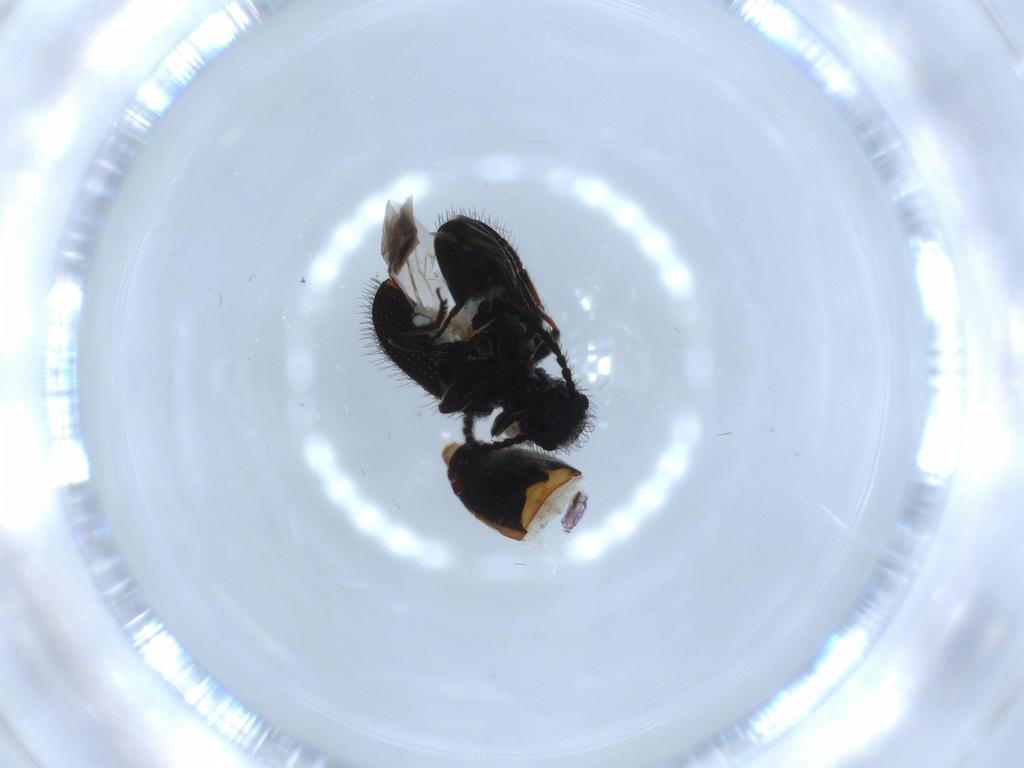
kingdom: Animalia
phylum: Arthropoda
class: Insecta
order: Coleoptera
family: Ptinidae
